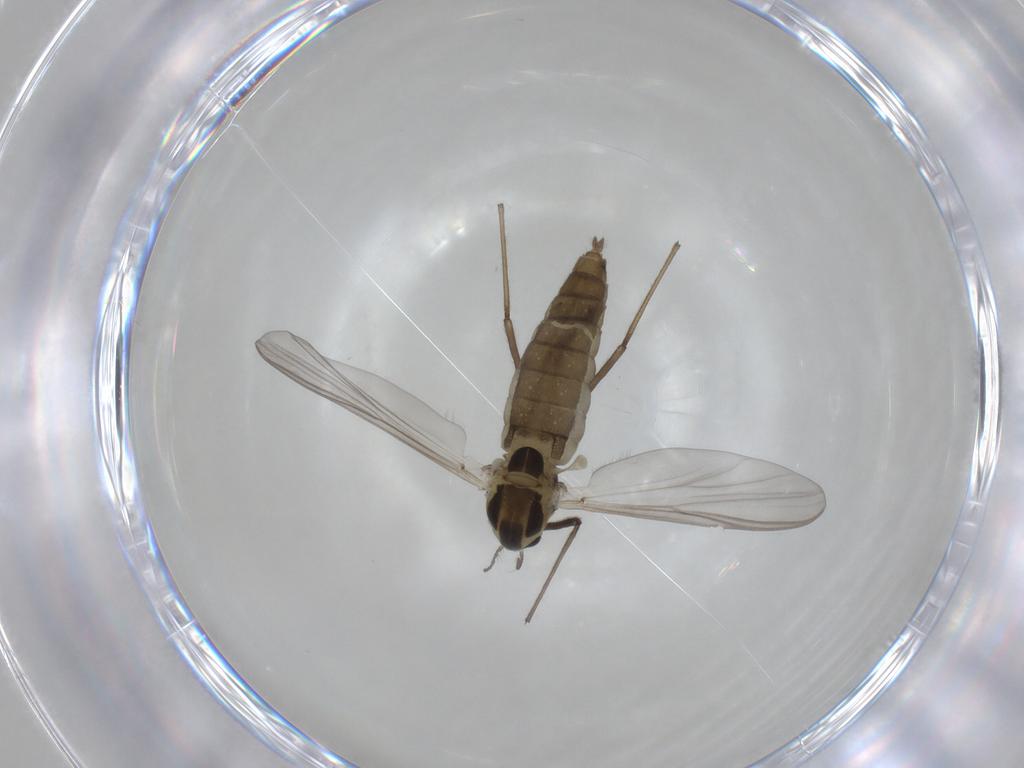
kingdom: Animalia
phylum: Arthropoda
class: Insecta
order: Diptera
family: Chironomidae
